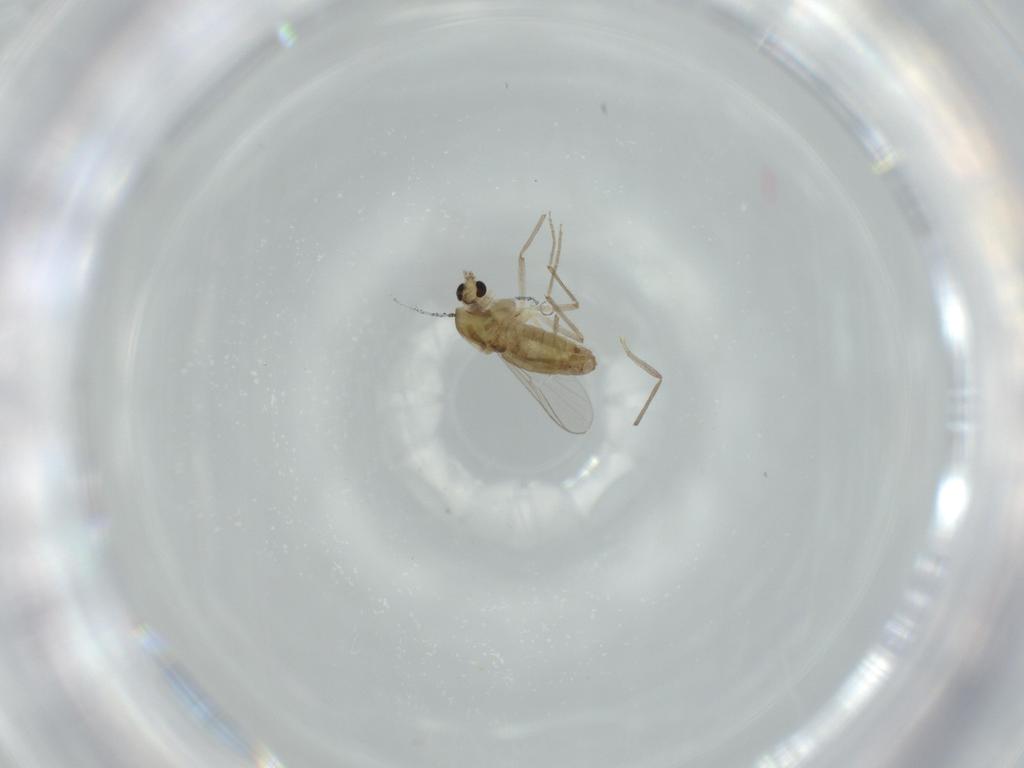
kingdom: Animalia
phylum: Arthropoda
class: Insecta
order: Diptera
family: Chironomidae
